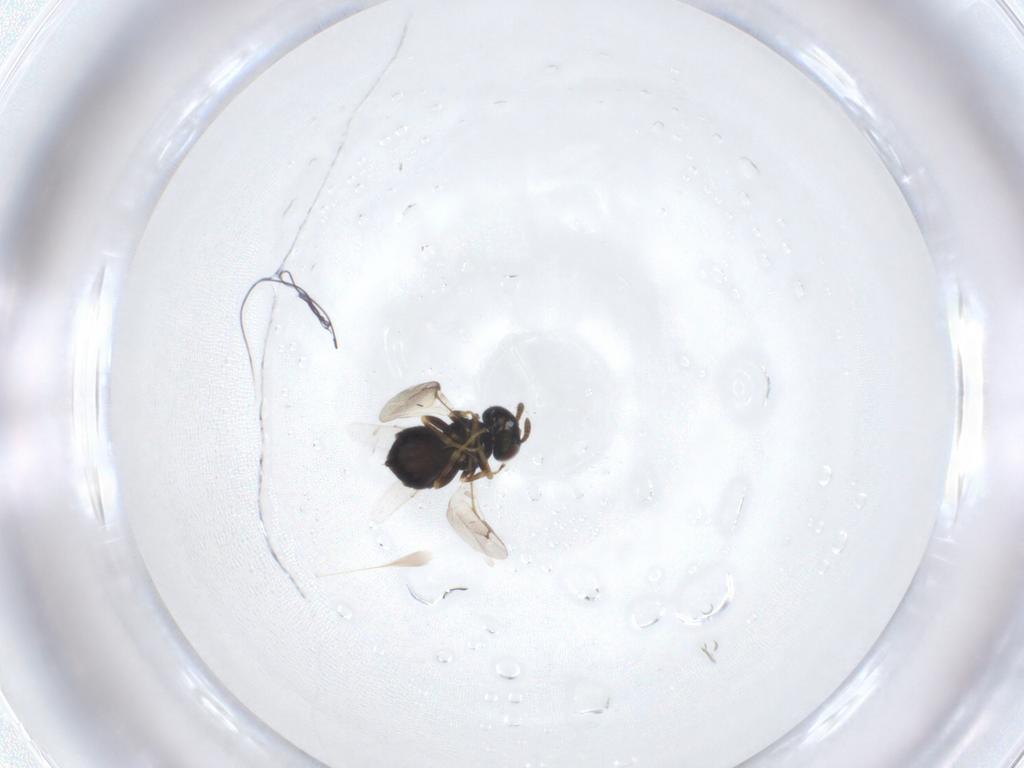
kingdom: Animalia
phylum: Arthropoda
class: Insecta
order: Hymenoptera
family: Pteromalidae
